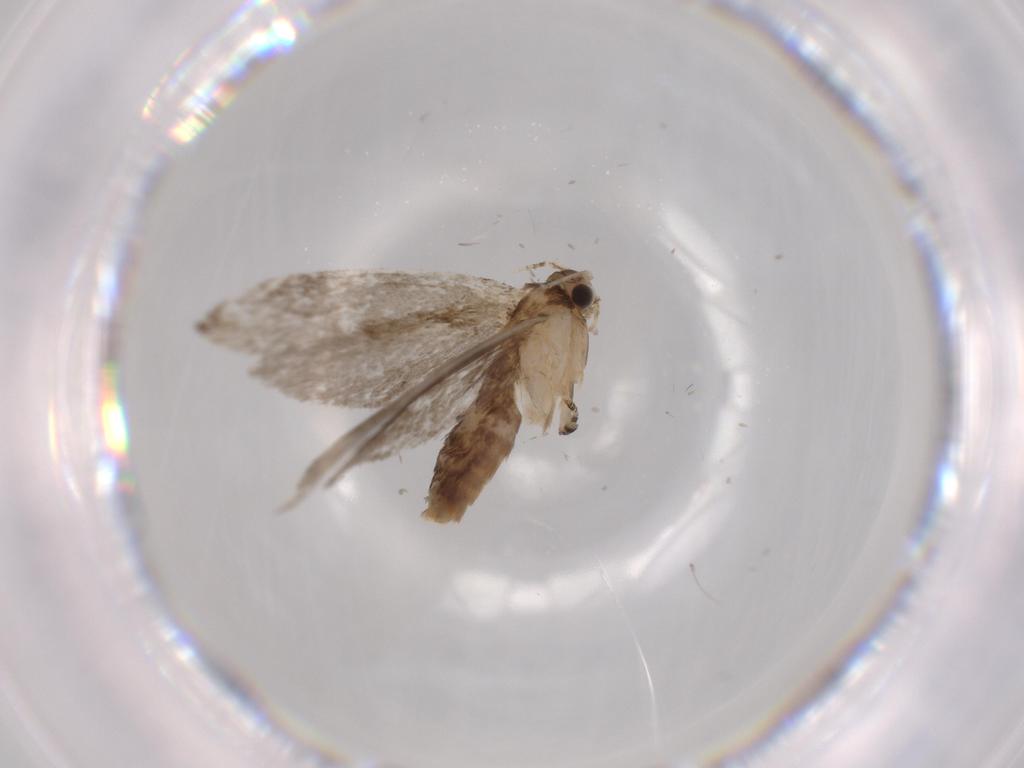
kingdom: Animalia
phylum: Arthropoda
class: Insecta
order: Lepidoptera
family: Tineidae
